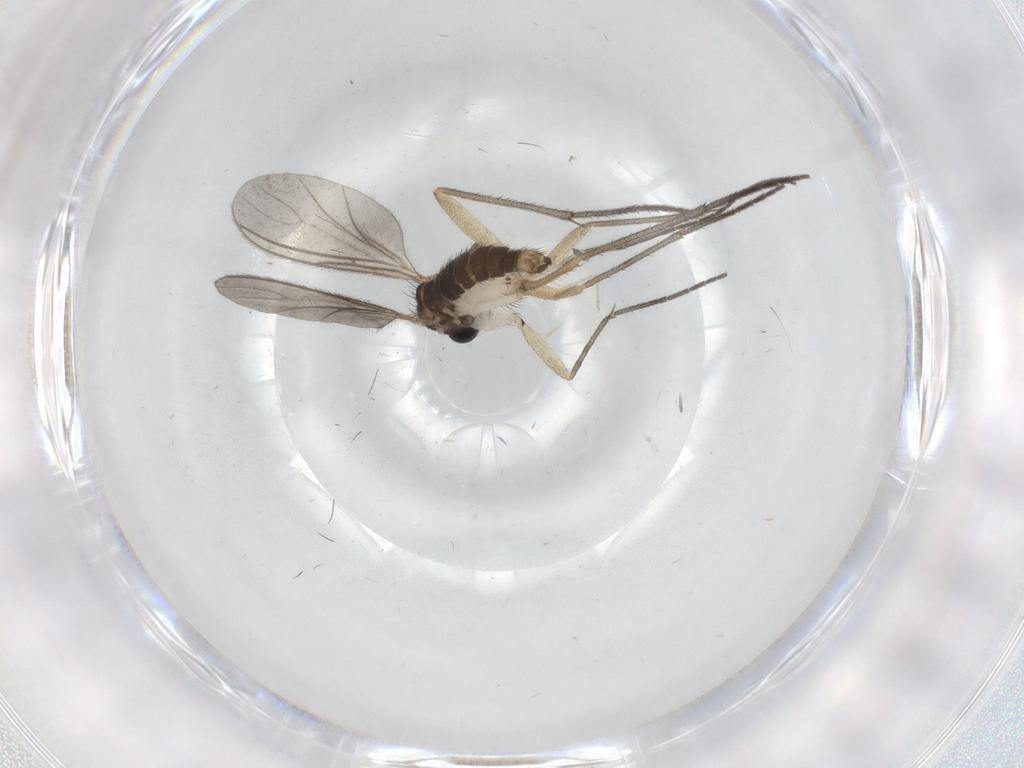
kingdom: Animalia
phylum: Arthropoda
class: Insecta
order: Diptera
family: Sciaridae
